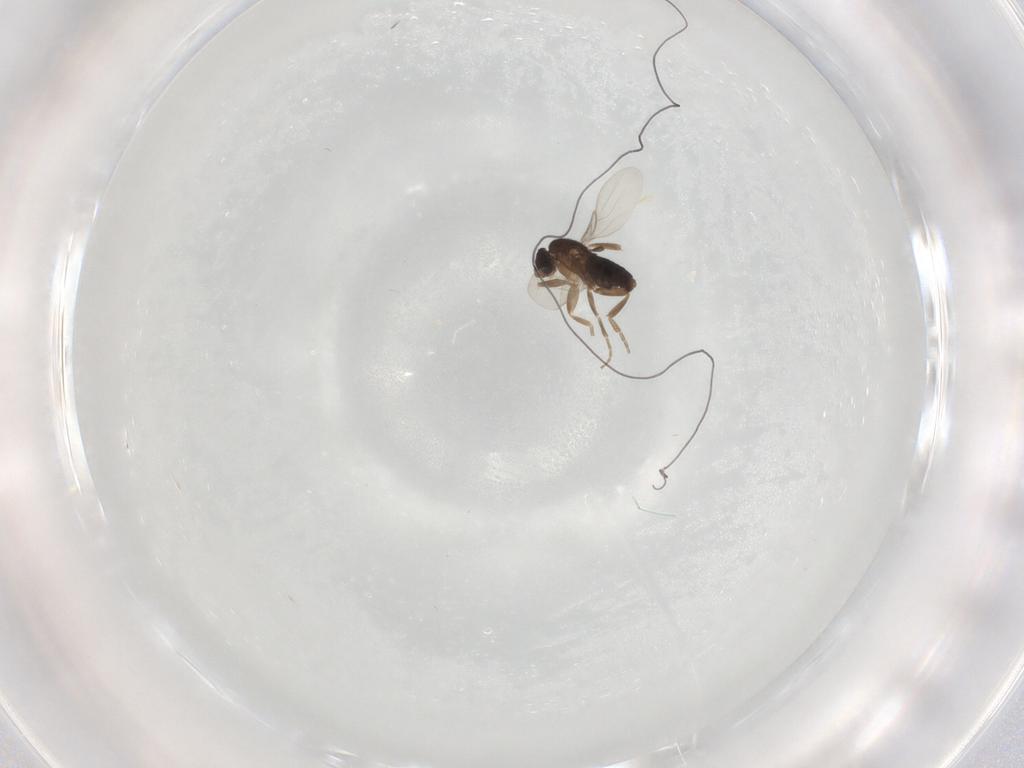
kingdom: Animalia
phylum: Arthropoda
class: Insecta
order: Diptera
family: Phoridae
